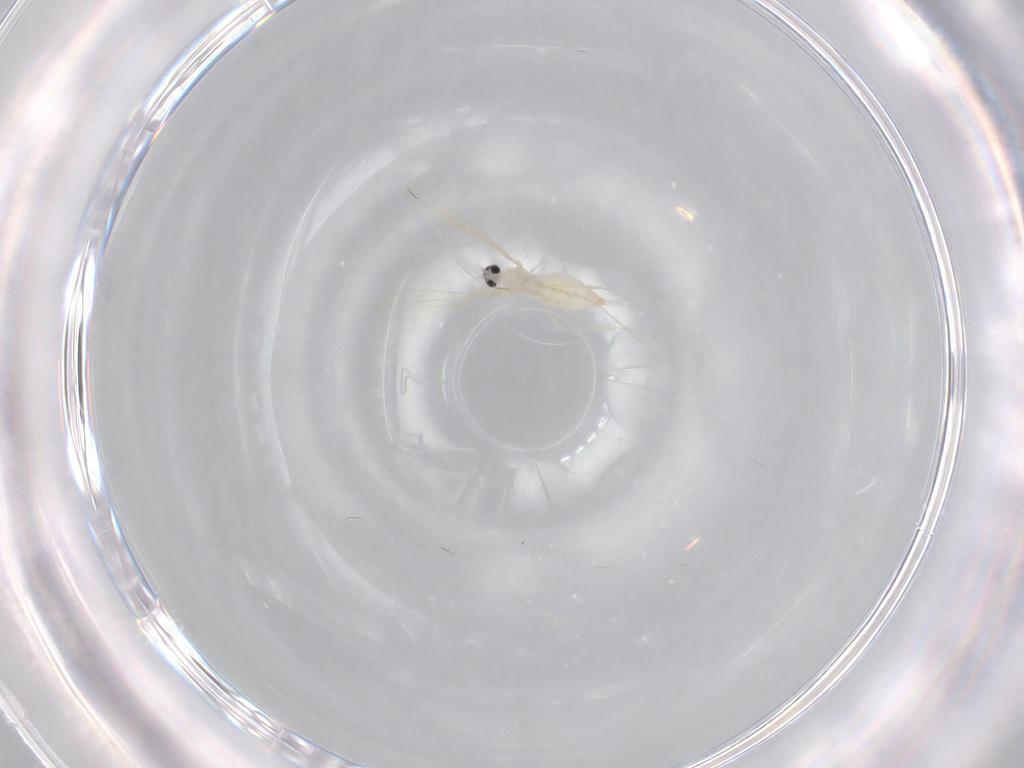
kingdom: Animalia
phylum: Arthropoda
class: Insecta
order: Diptera
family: Cecidomyiidae
